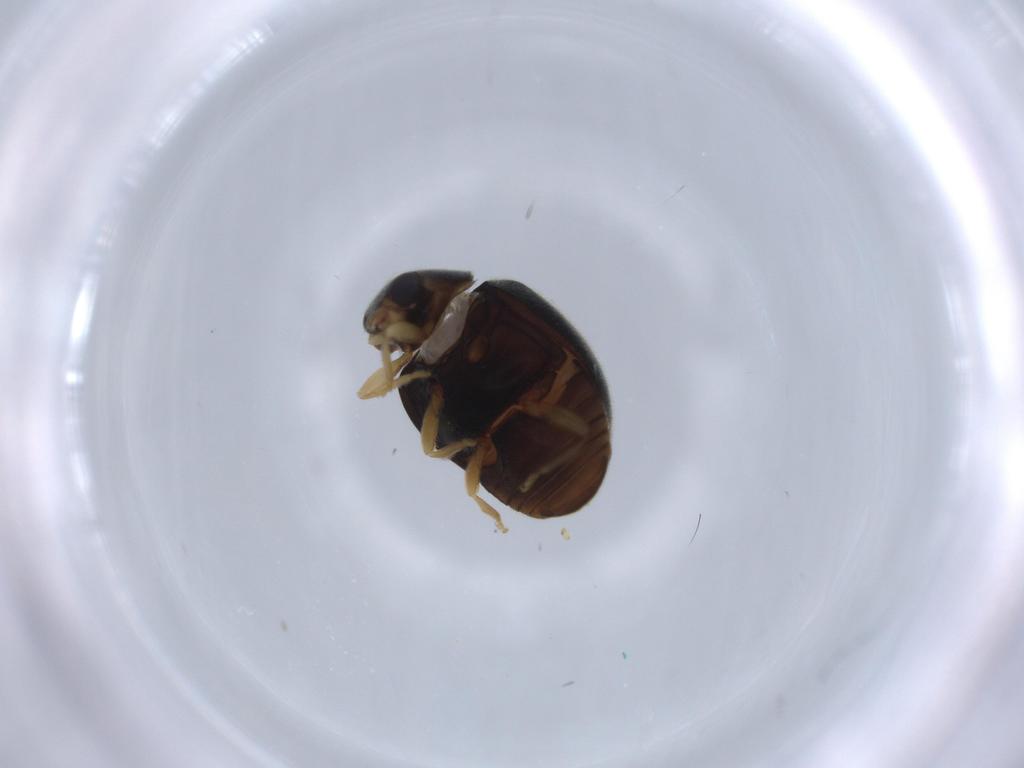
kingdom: Animalia
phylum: Arthropoda
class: Insecta
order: Coleoptera
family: Coccinellidae
